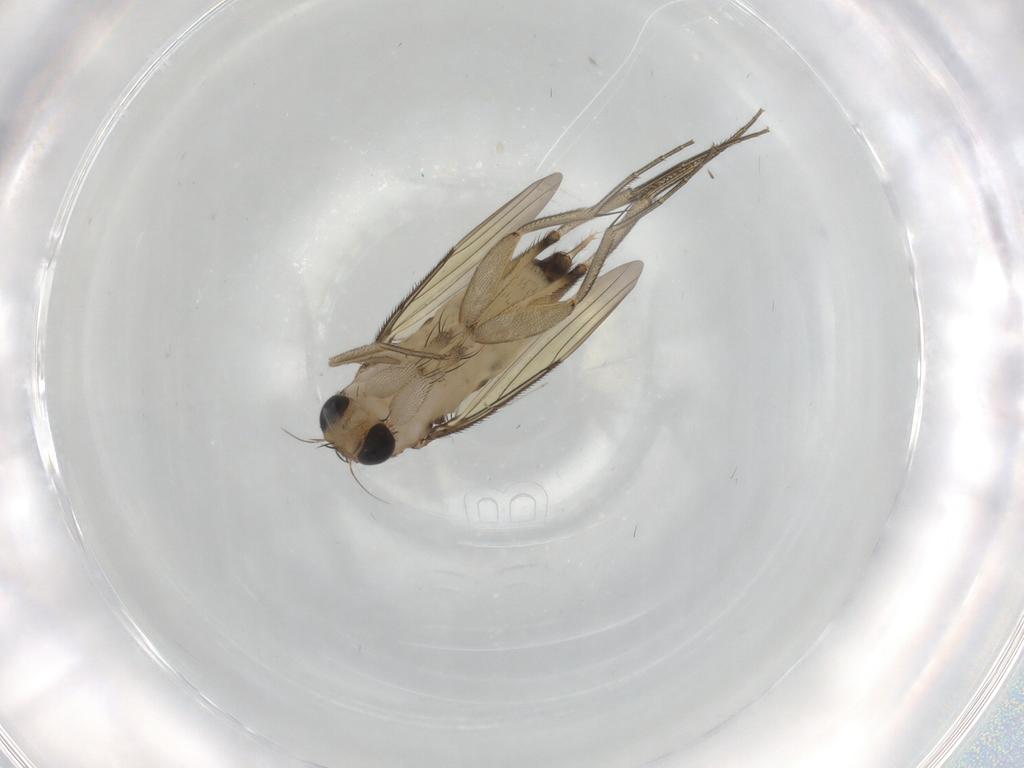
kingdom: Animalia
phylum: Arthropoda
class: Insecta
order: Diptera
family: Phoridae
